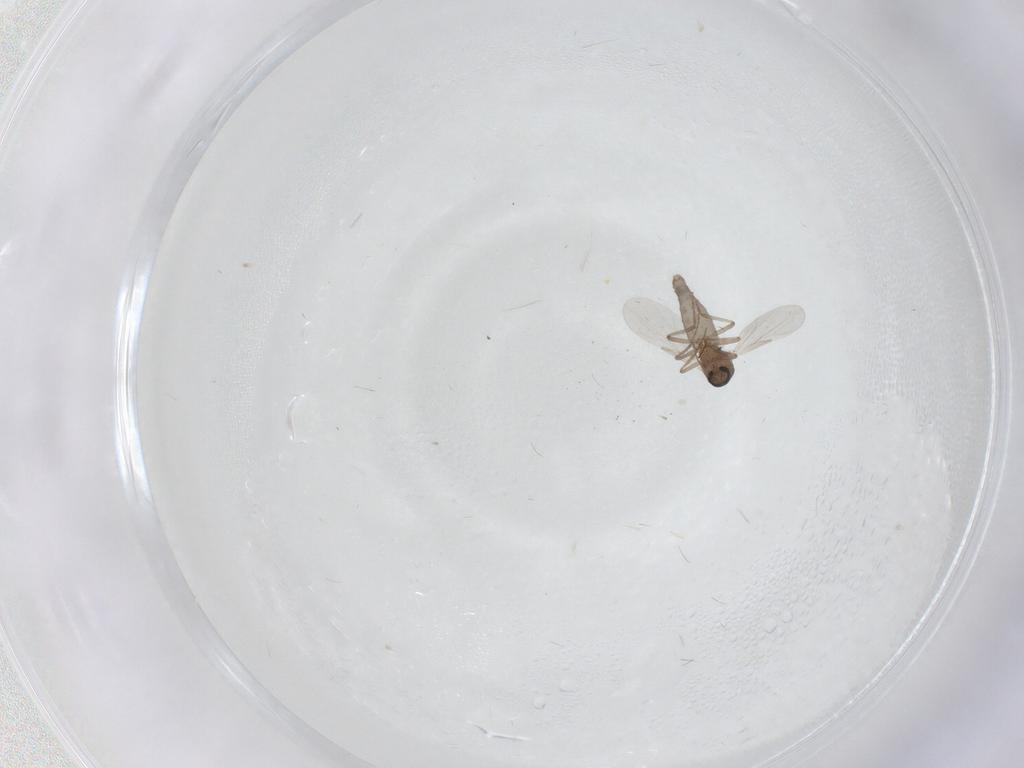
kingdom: Animalia
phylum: Arthropoda
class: Insecta
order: Diptera
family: Ceratopogonidae
